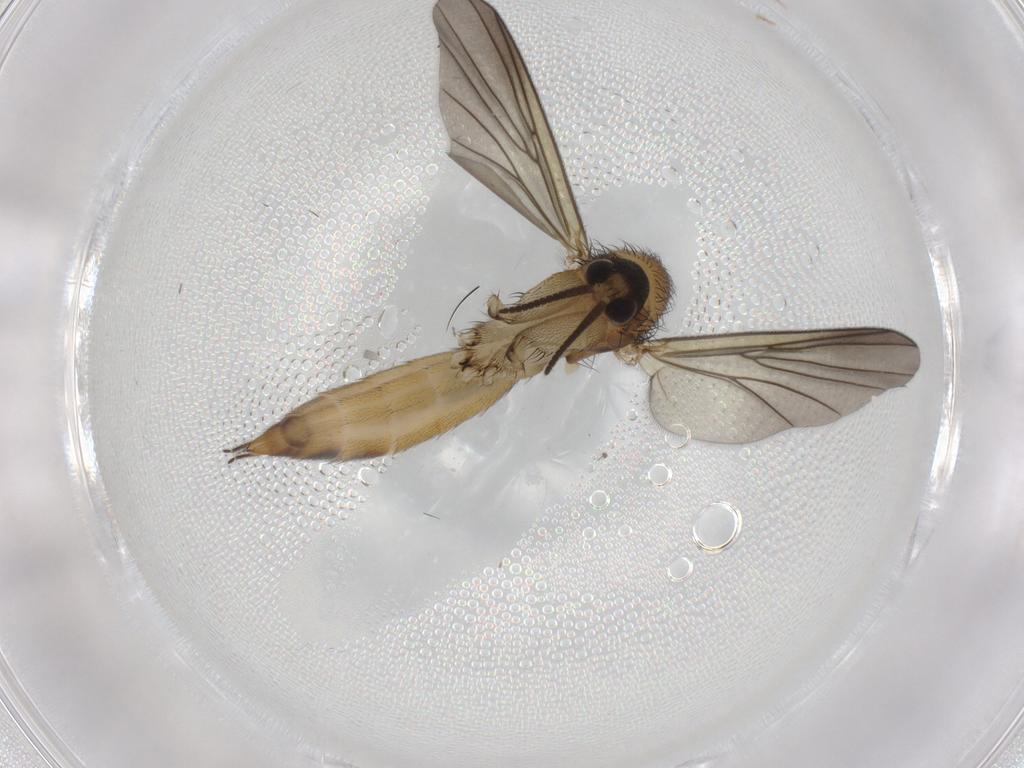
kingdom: Animalia
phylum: Arthropoda
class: Insecta
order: Diptera
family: Mycetophilidae
